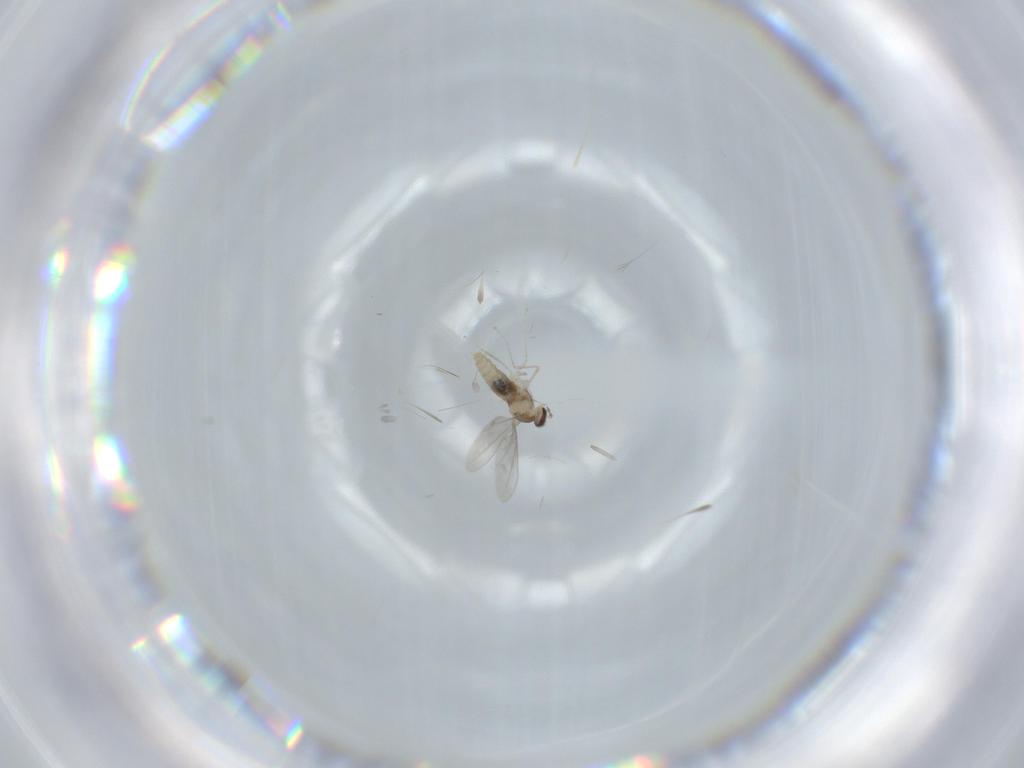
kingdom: Animalia
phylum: Arthropoda
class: Insecta
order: Diptera
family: Cecidomyiidae
